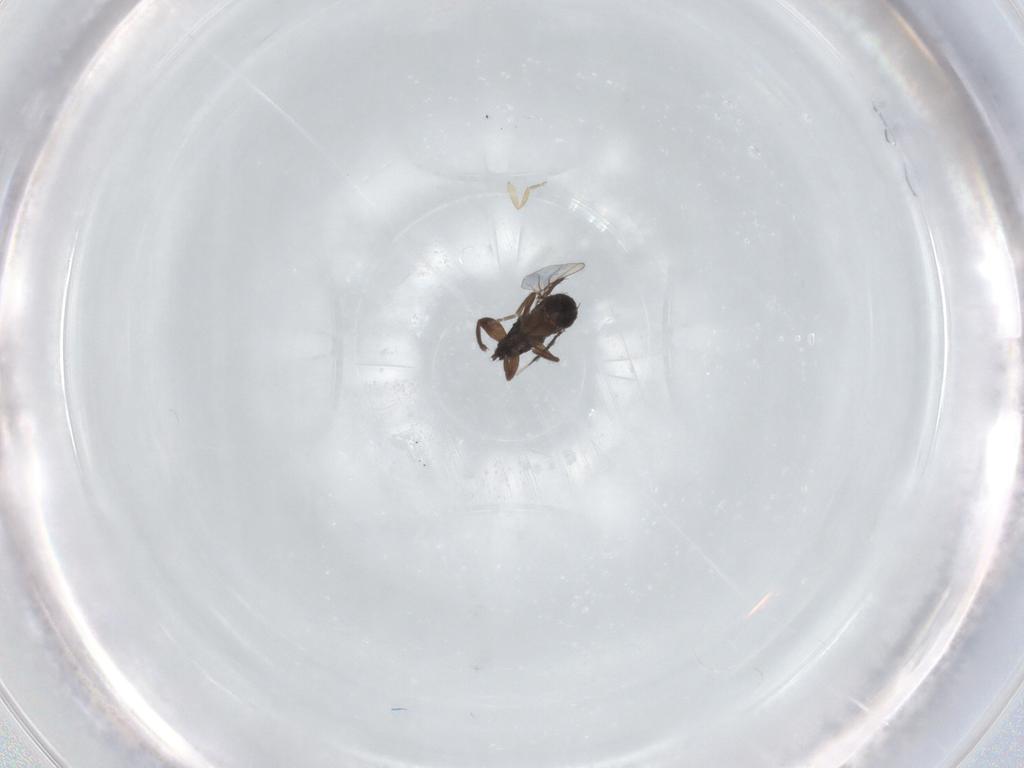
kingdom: Animalia
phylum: Arthropoda
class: Insecta
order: Diptera
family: Phoridae
